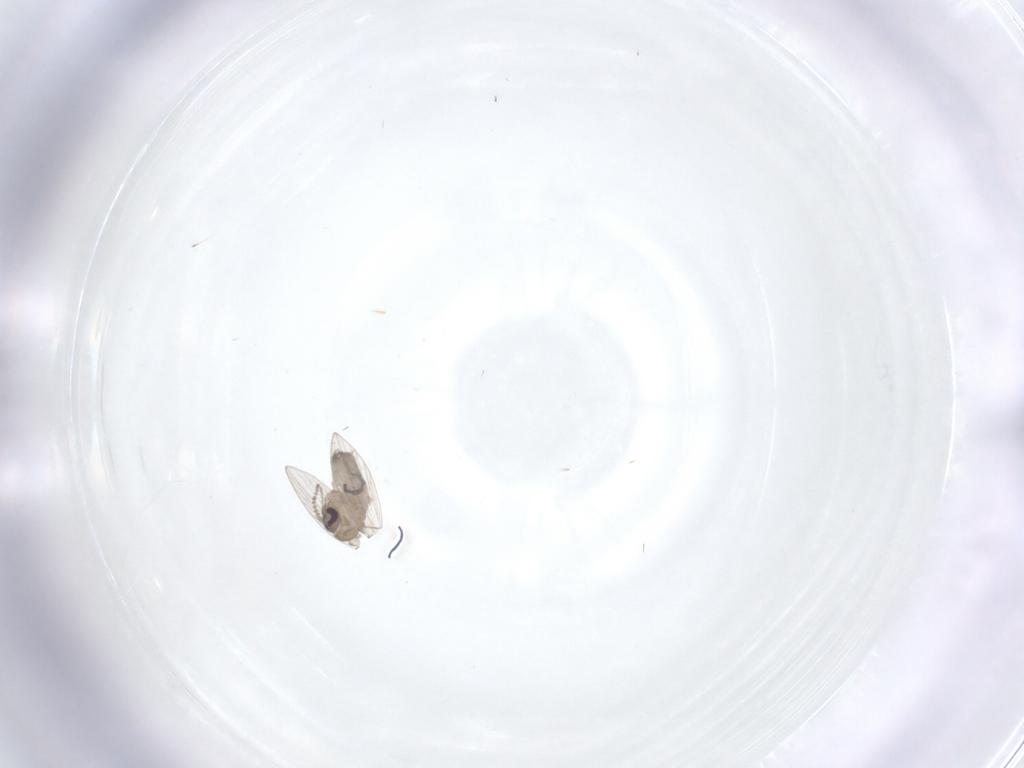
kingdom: Animalia
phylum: Arthropoda
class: Insecta
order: Diptera
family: Psychodidae
